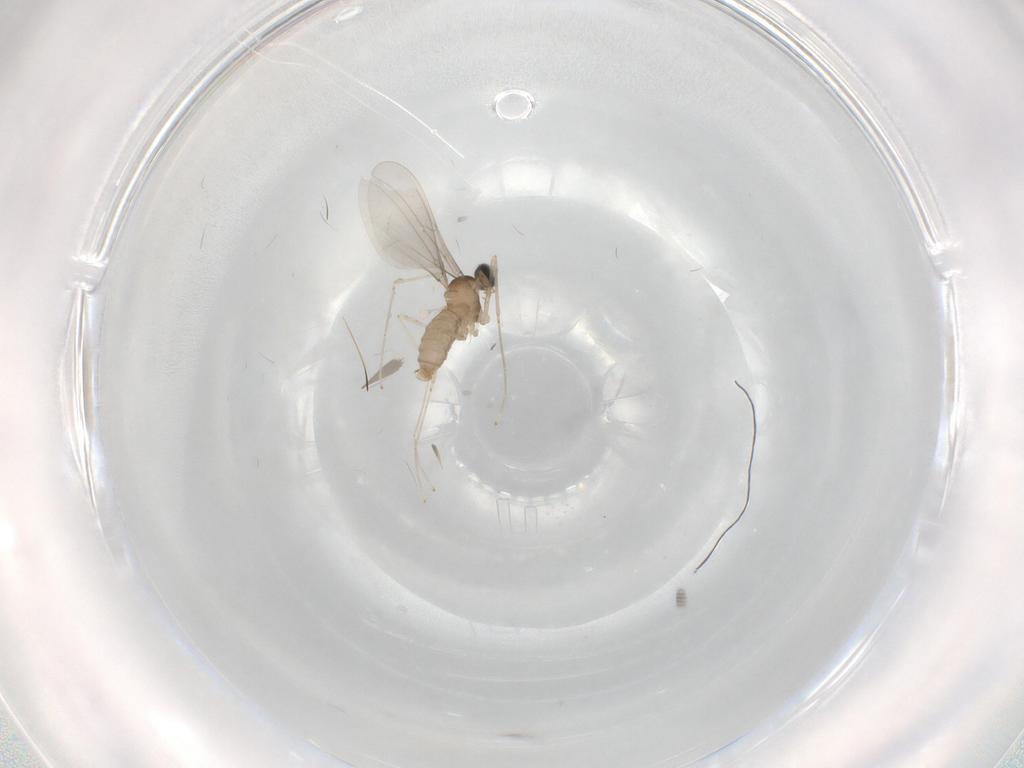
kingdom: Animalia
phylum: Arthropoda
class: Insecta
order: Diptera
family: Cecidomyiidae
